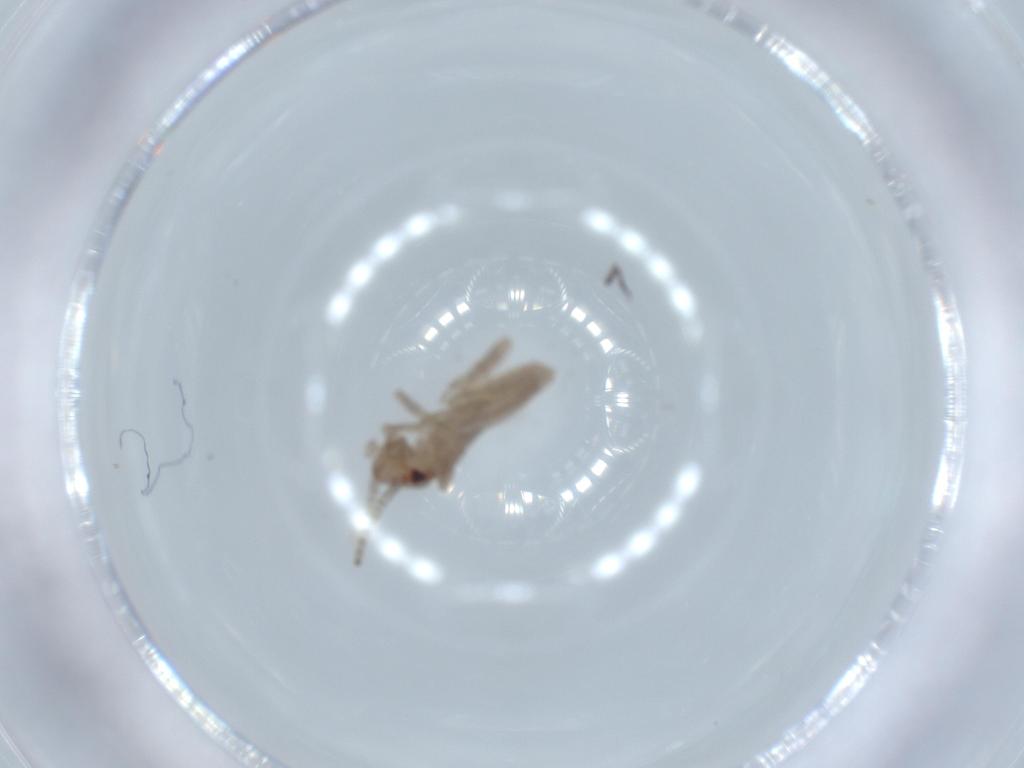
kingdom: Animalia
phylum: Arthropoda
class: Insecta
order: Orthoptera
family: Mogoplistidae
